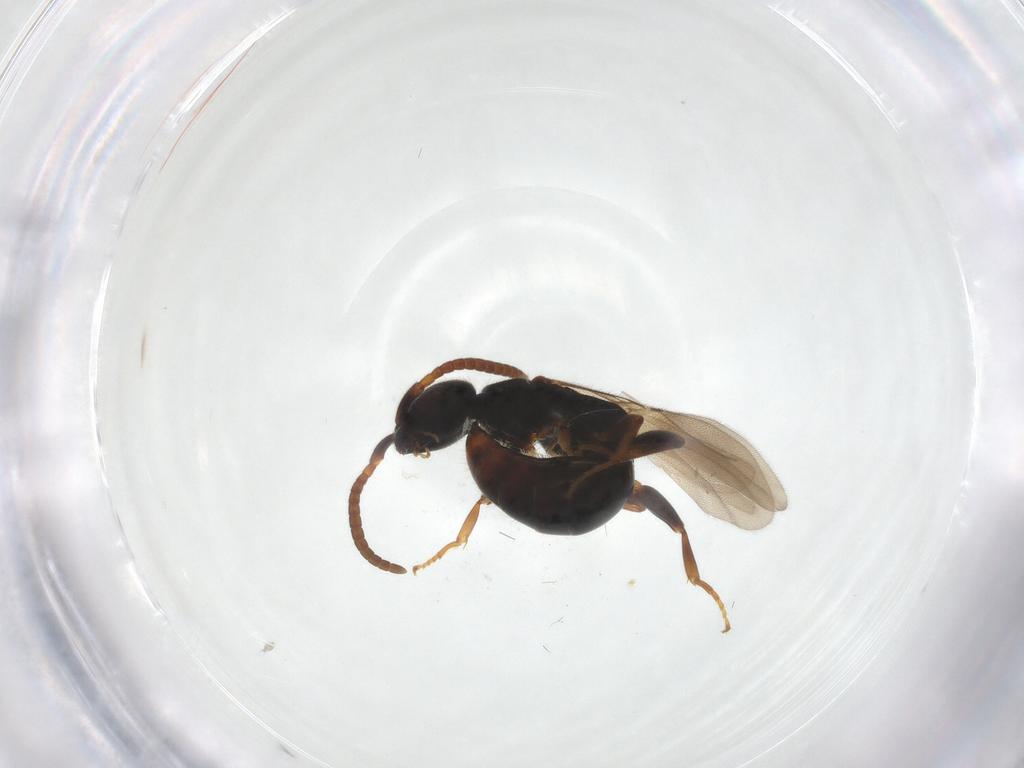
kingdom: Animalia
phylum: Arthropoda
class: Insecta
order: Hymenoptera
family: Bethylidae
